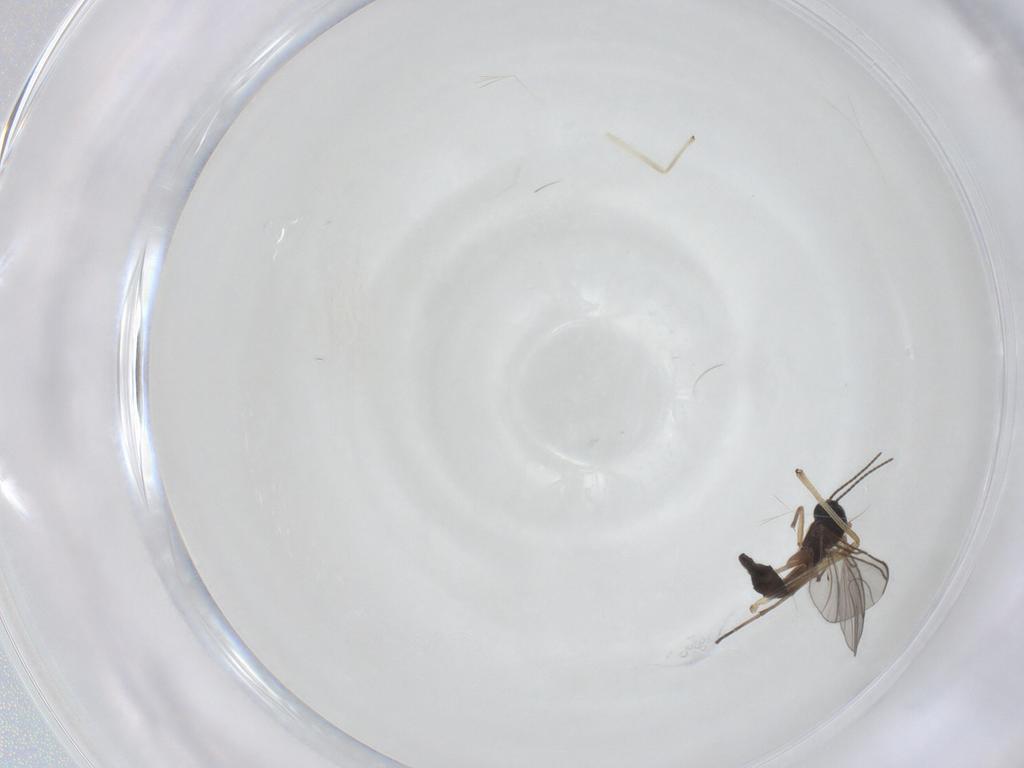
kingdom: Animalia
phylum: Arthropoda
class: Insecta
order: Diptera
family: Chironomidae
